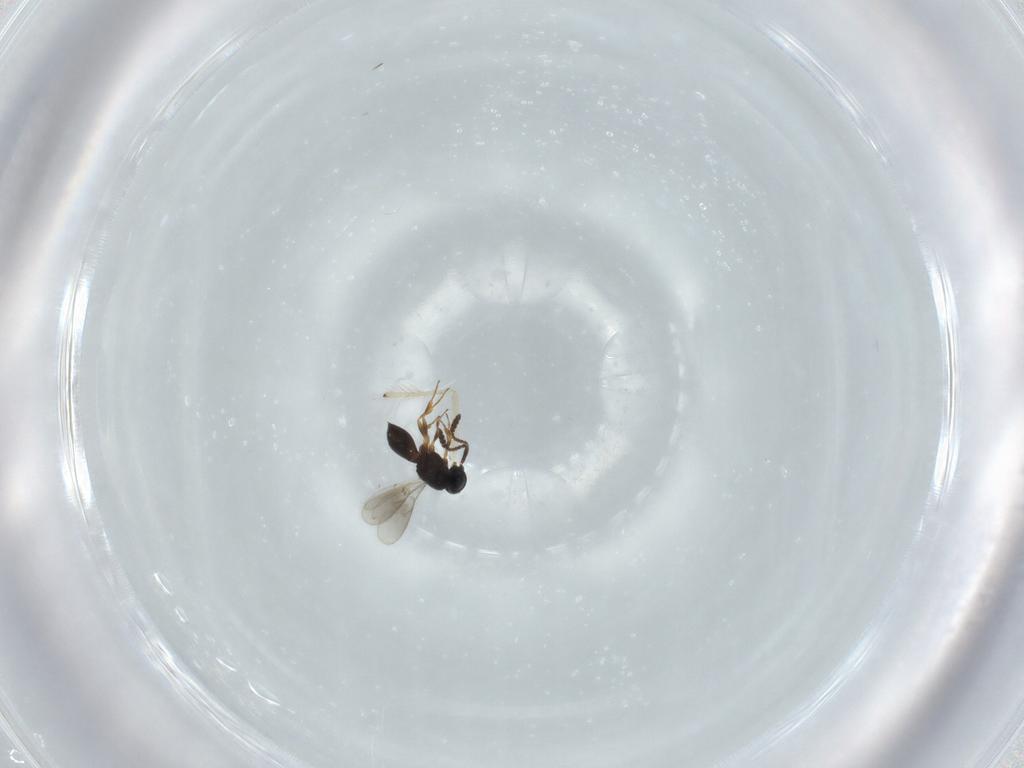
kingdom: Animalia
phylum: Arthropoda
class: Insecta
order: Hymenoptera
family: Scelionidae
